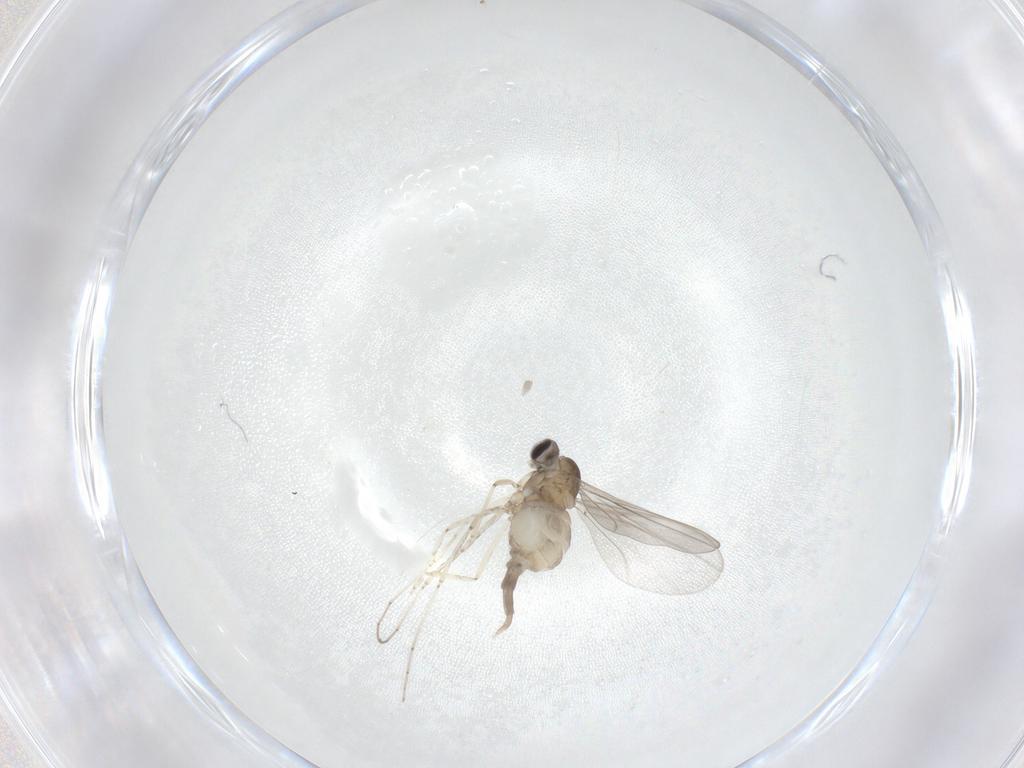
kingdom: Animalia
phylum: Arthropoda
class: Insecta
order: Diptera
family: Cecidomyiidae
